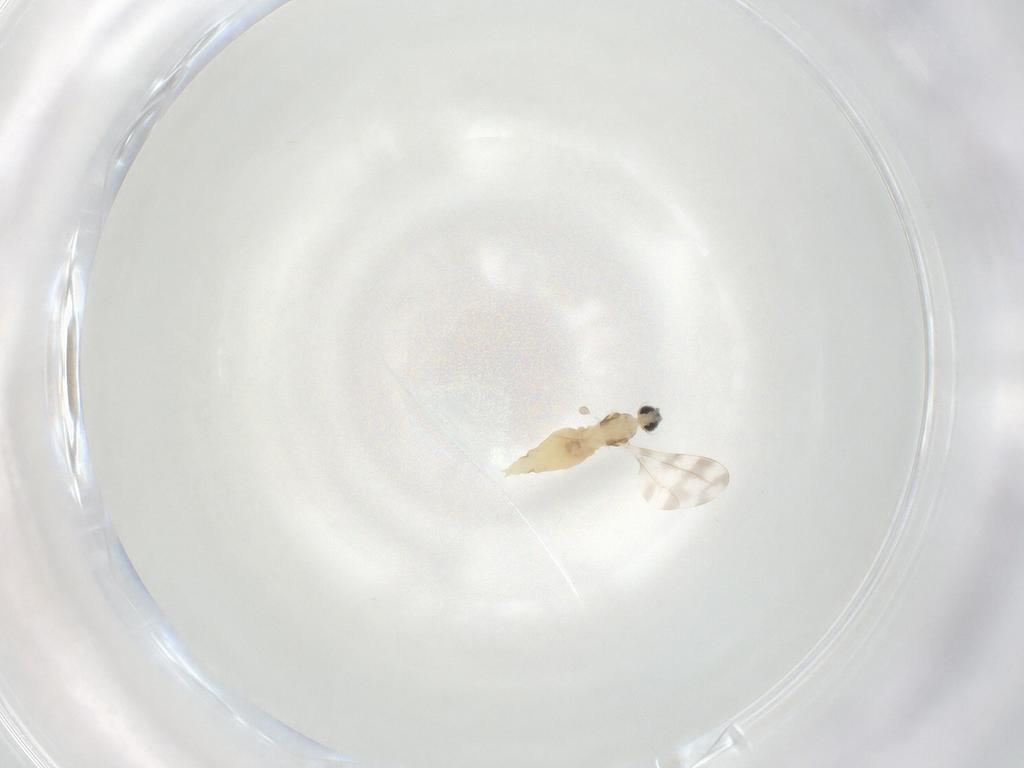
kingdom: Animalia
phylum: Arthropoda
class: Insecta
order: Diptera
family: Cecidomyiidae
